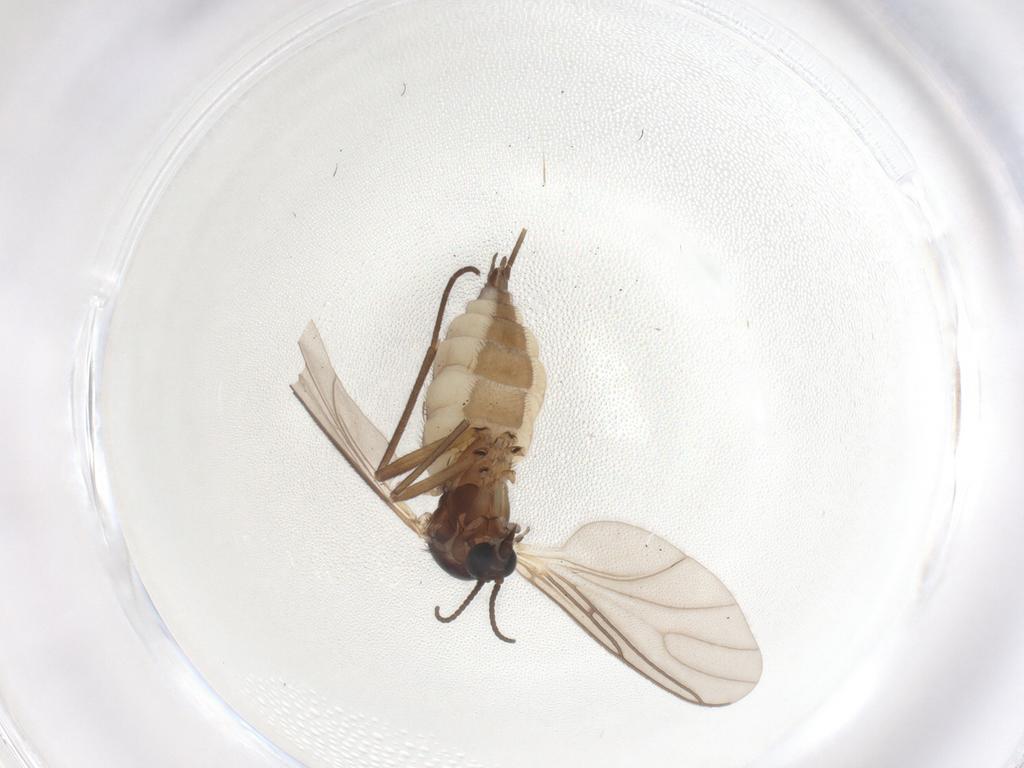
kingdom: Animalia
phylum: Arthropoda
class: Insecta
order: Diptera
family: Sciaridae
